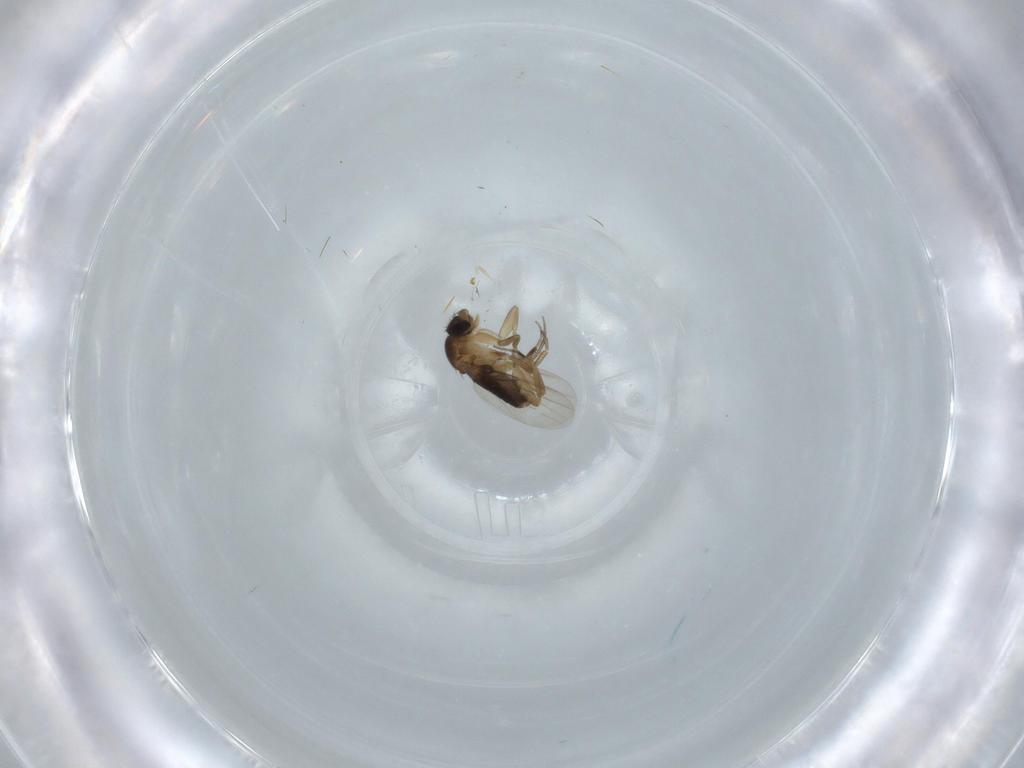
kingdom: Animalia
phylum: Arthropoda
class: Insecta
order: Diptera
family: Phoridae
